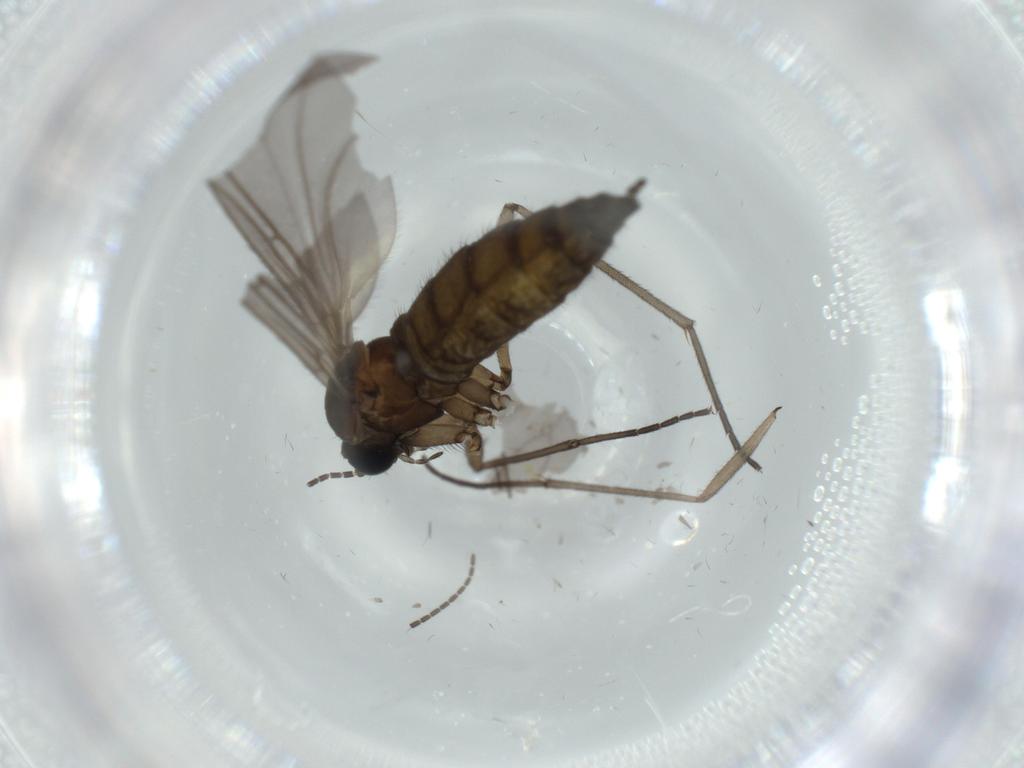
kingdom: Animalia
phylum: Arthropoda
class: Insecta
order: Diptera
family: Sciaridae
